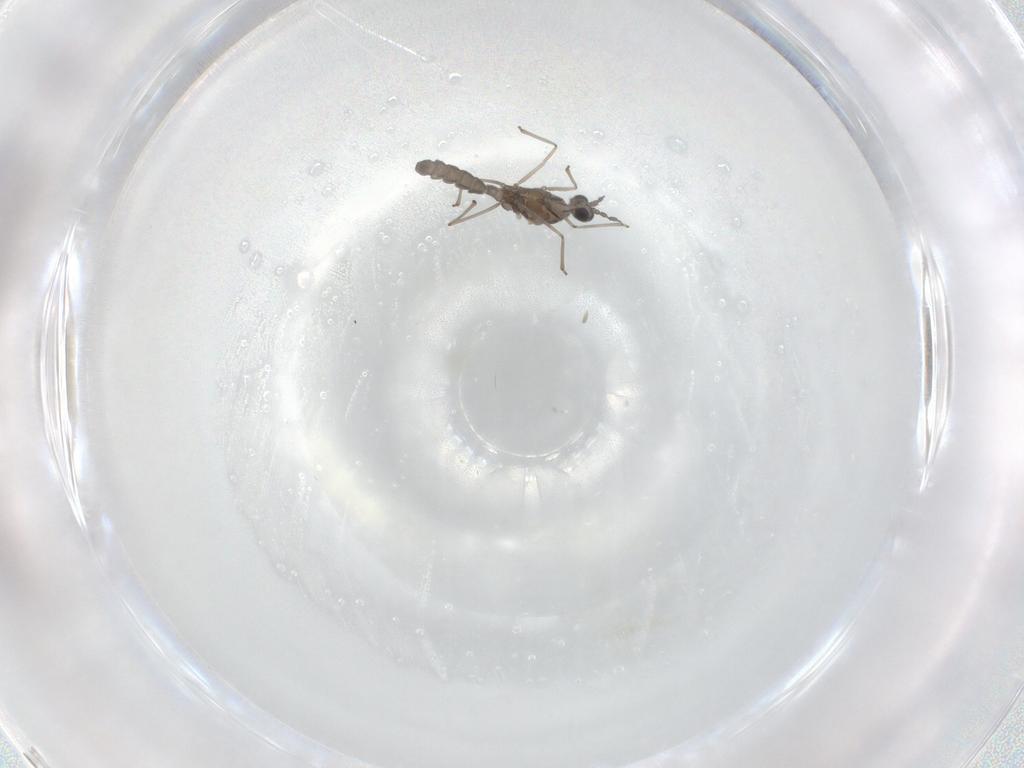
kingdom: Animalia
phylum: Arthropoda
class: Insecta
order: Diptera
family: Cecidomyiidae
